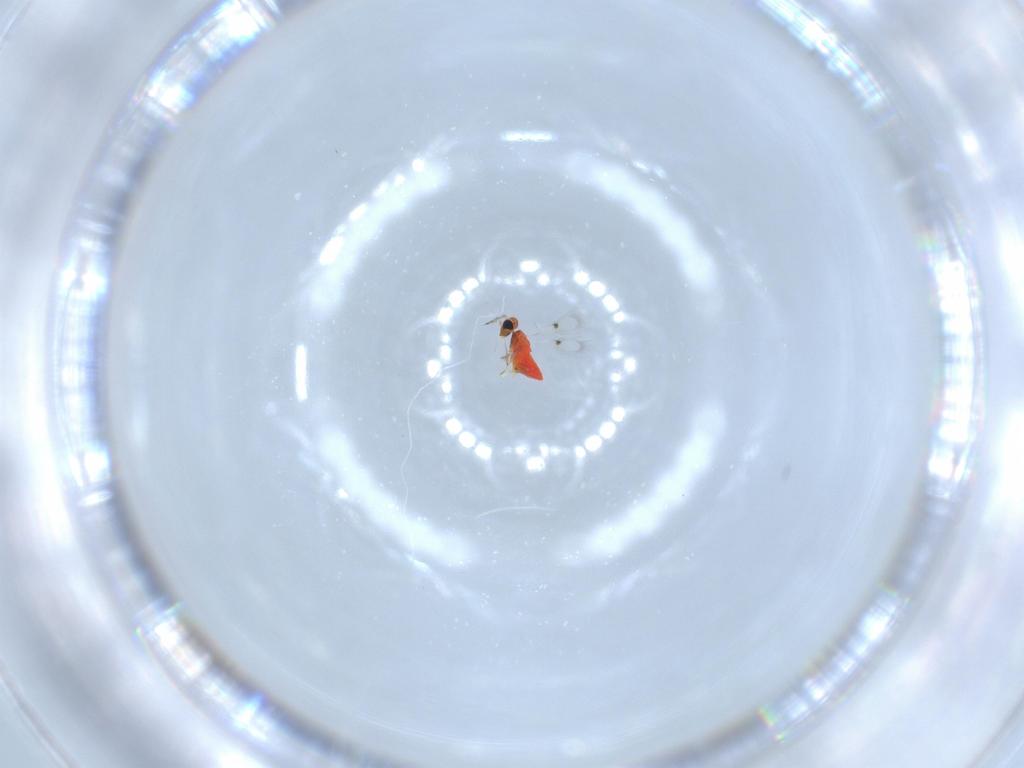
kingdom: Animalia
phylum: Arthropoda
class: Insecta
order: Hymenoptera
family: Trichogrammatidae
